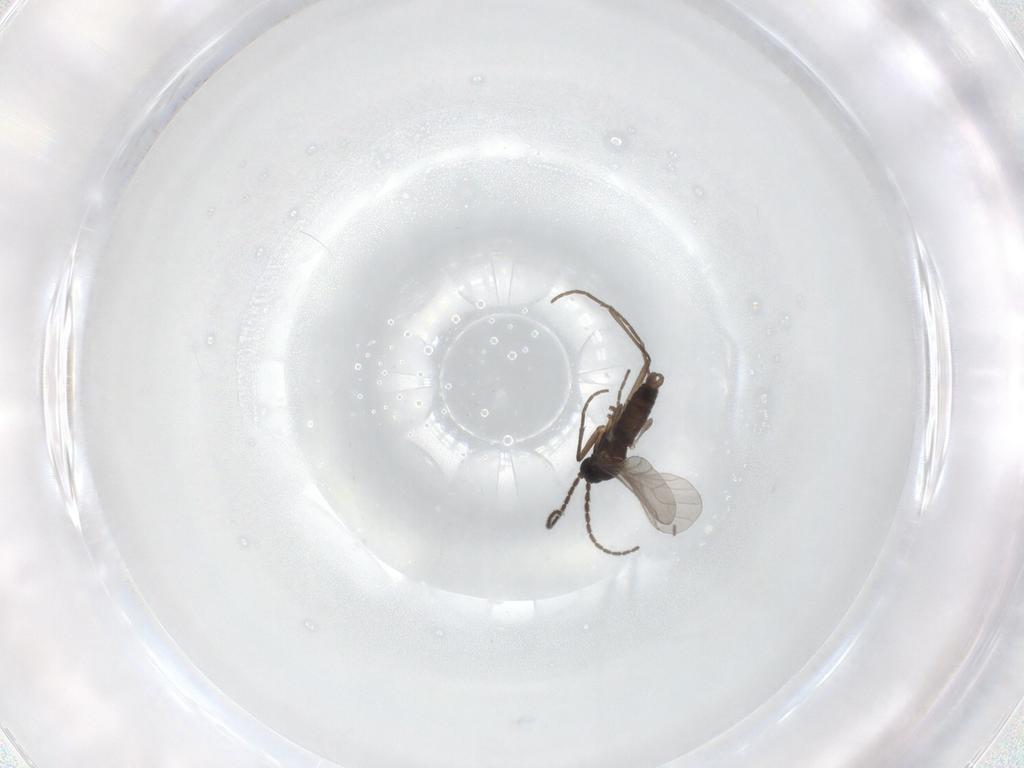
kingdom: Animalia
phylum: Arthropoda
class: Insecta
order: Diptera
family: Sciaridae
